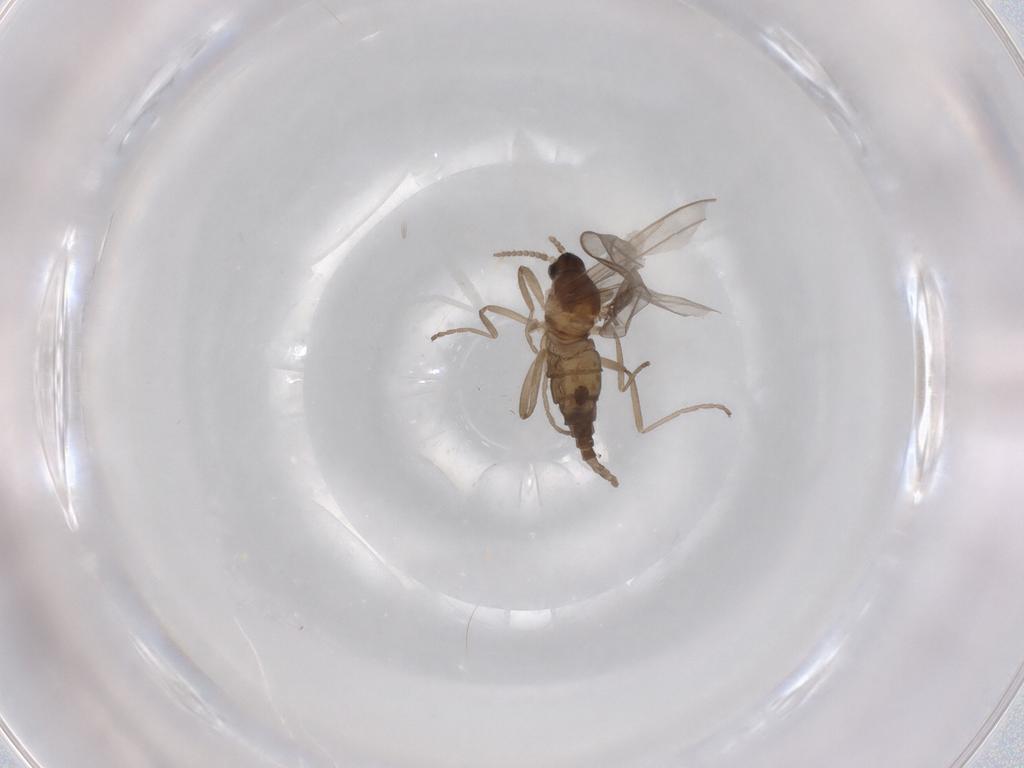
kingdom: Animalia
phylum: Arthropoda
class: Insecta
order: Diptera
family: Cecidomyiidae
